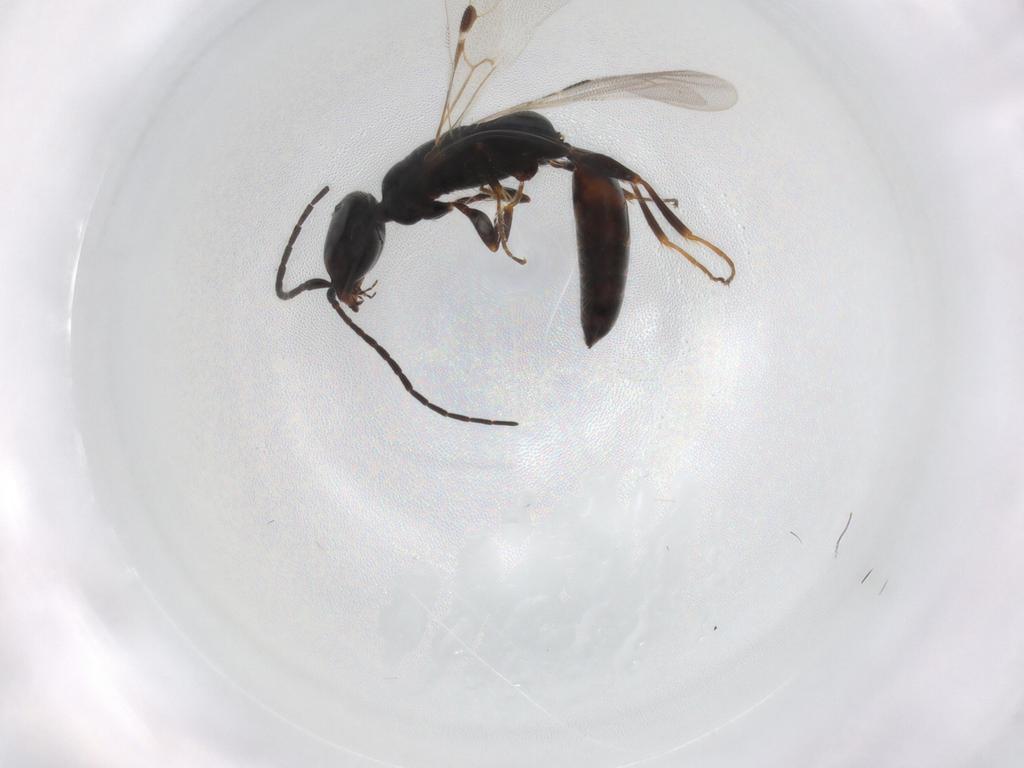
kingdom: Animalia
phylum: Arthropoda
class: Insecta
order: Hymenoptera
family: Bethylidae
